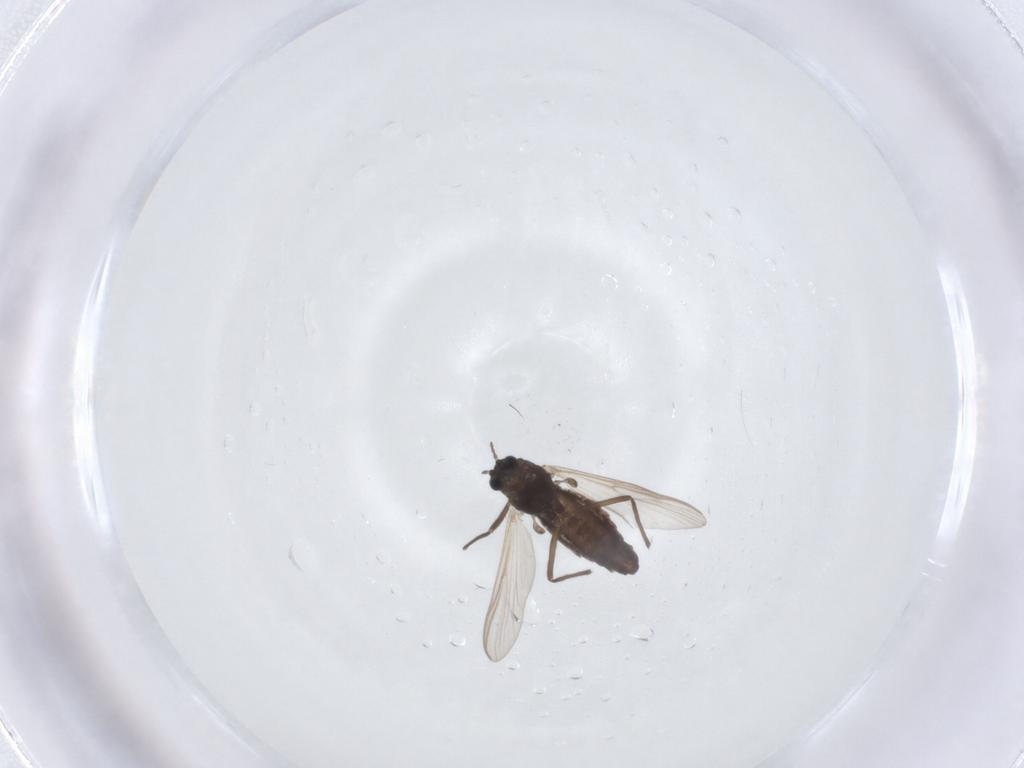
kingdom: Animalia
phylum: Arthropoda
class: Insecta
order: Diptera
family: Chironomidae
